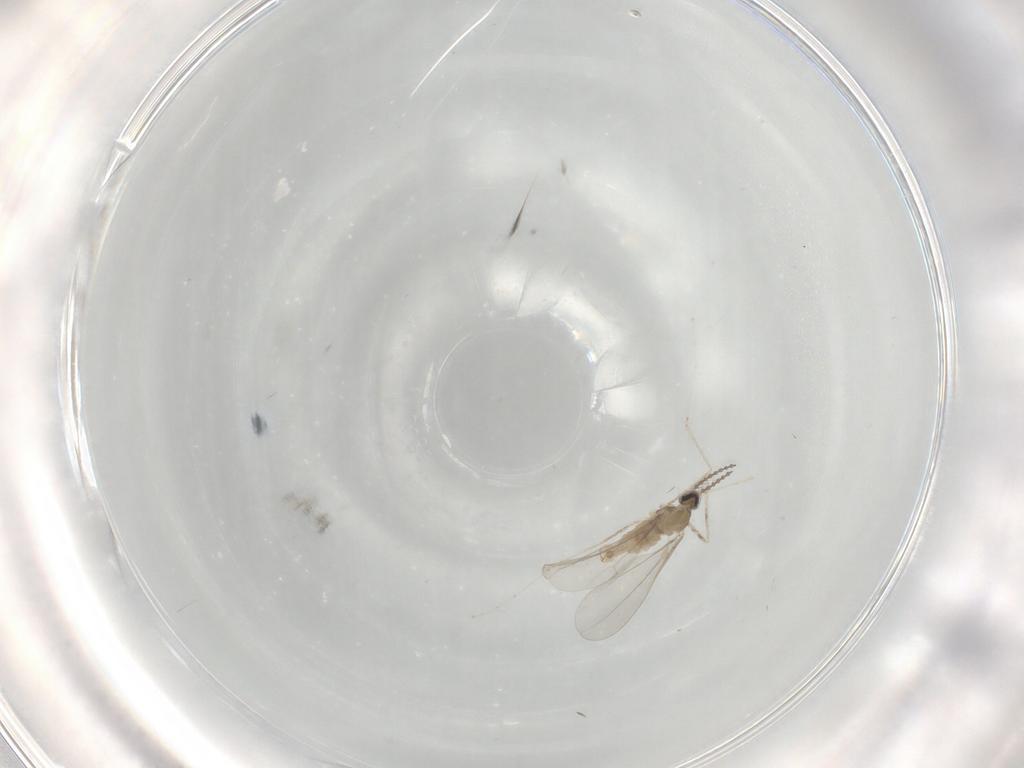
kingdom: Animalia
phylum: Arthropoda
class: Insecta
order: Diptera
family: Ceratopogonidae
